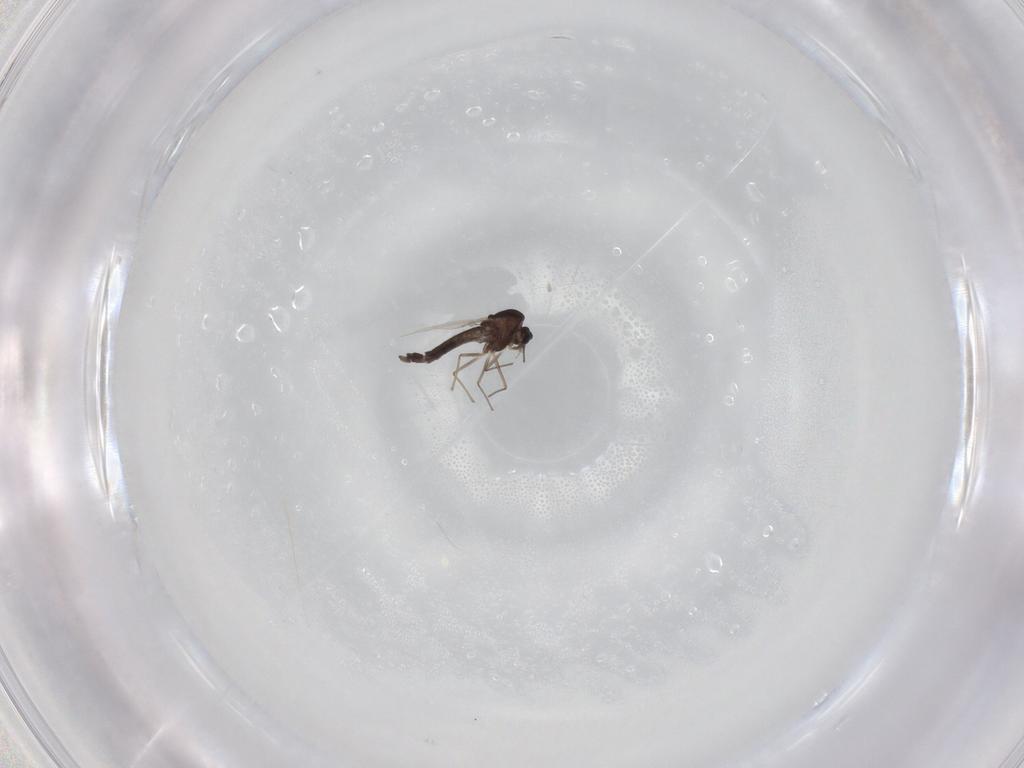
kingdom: Animalia
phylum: Arthropoda
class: Insecta
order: Diptera
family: Chironomidae
